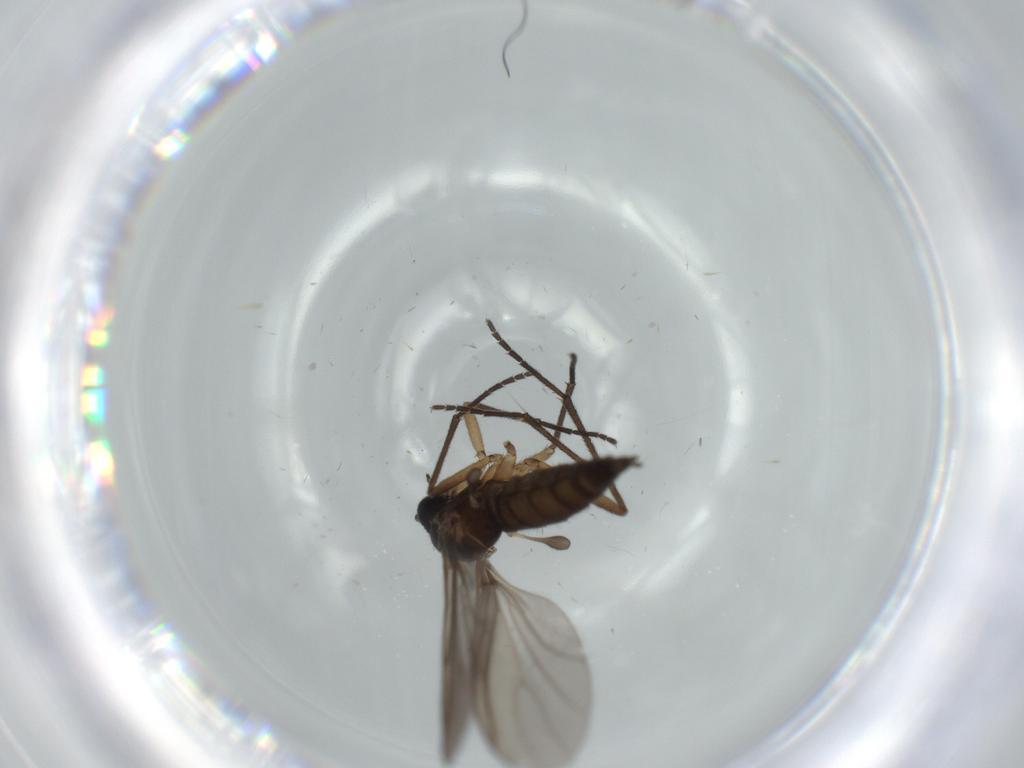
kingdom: Animalia
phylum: Arthropoda
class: Insecta
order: Diptera
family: Sciaridae
